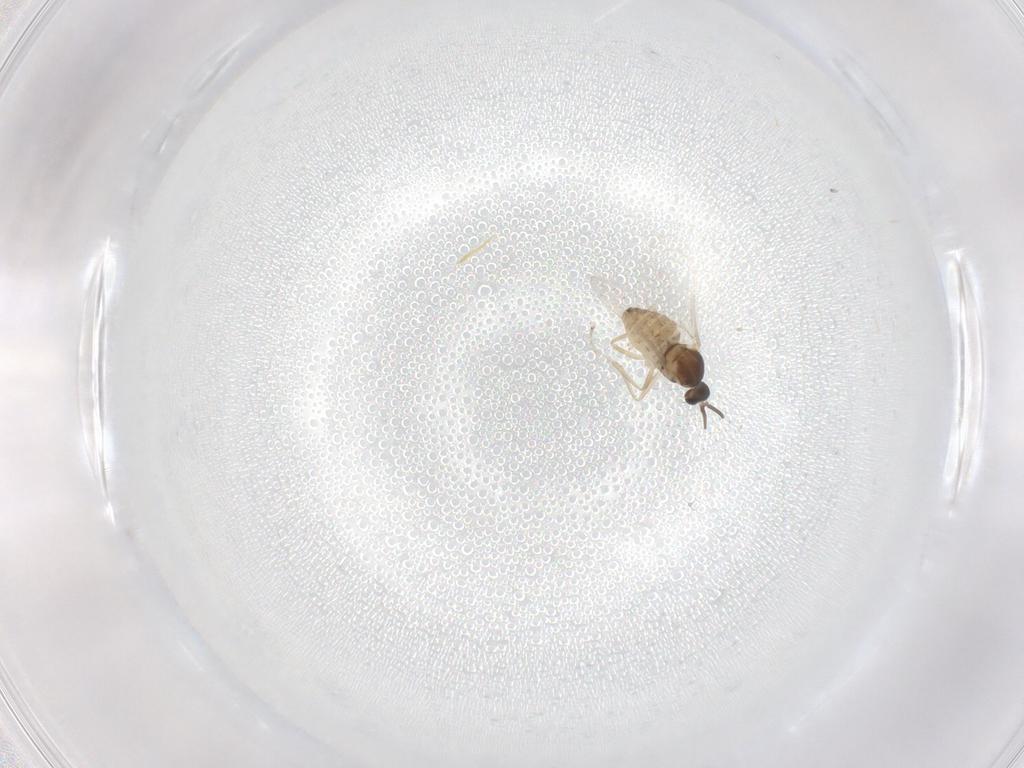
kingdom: Animalia
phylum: Arthropoda
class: Insecta
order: Diptera
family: Cecidomyiidae
